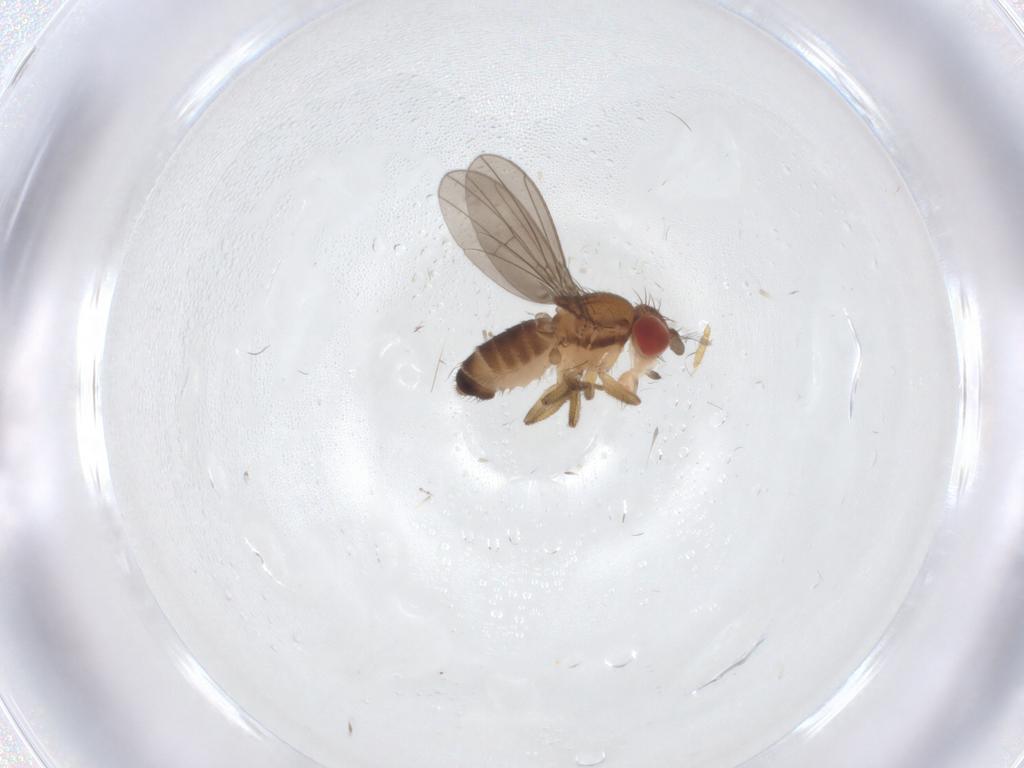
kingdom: Animalia
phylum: Arthropoda
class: Insecta
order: Diptera
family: Drosophilidae
